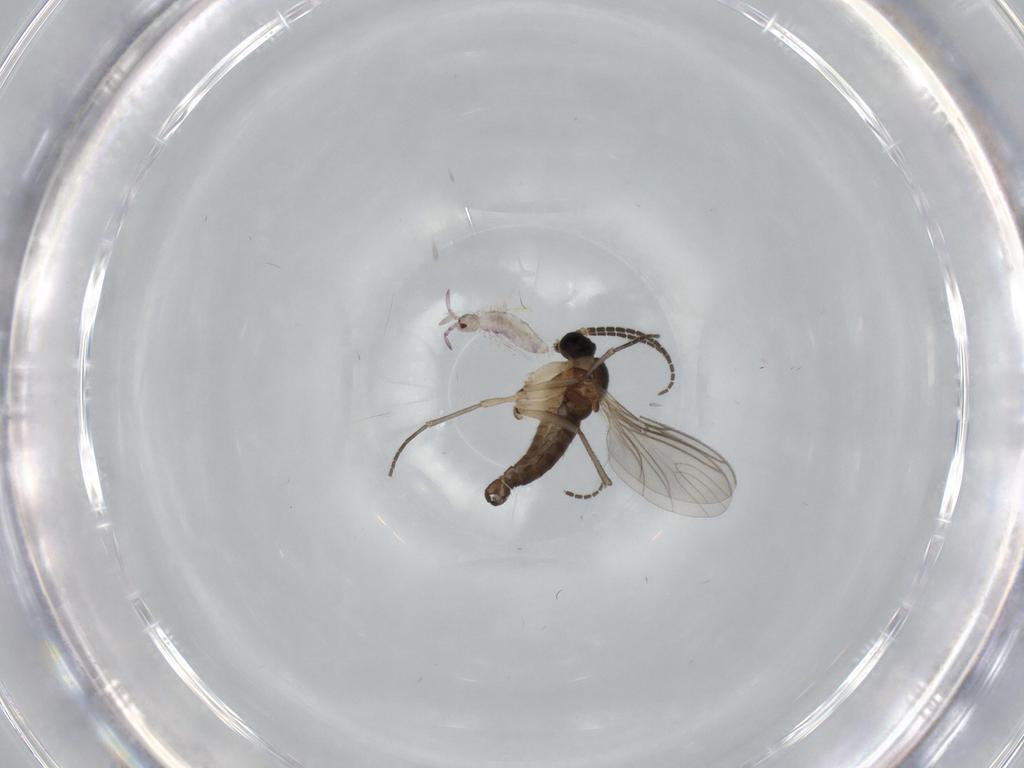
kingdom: Animalia
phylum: Arthropoda
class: Insecta
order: Diptera
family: Sciaridae
